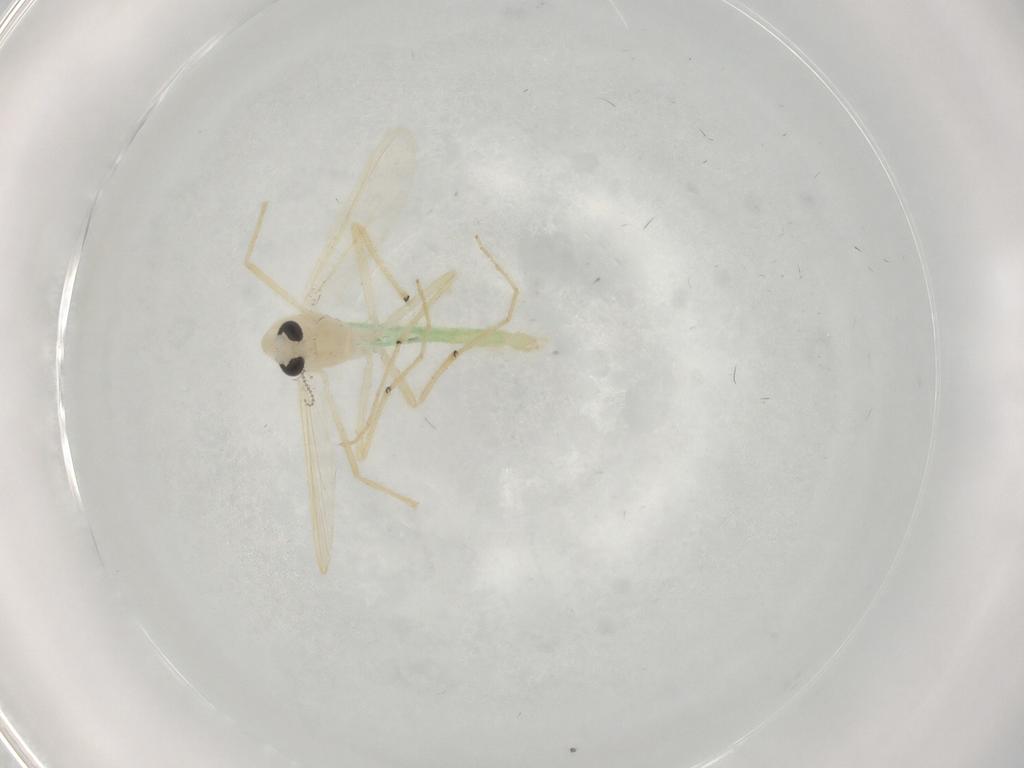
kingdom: Animalia
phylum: Arthropoda
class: Insecta
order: Diptera
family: Chironomidae
